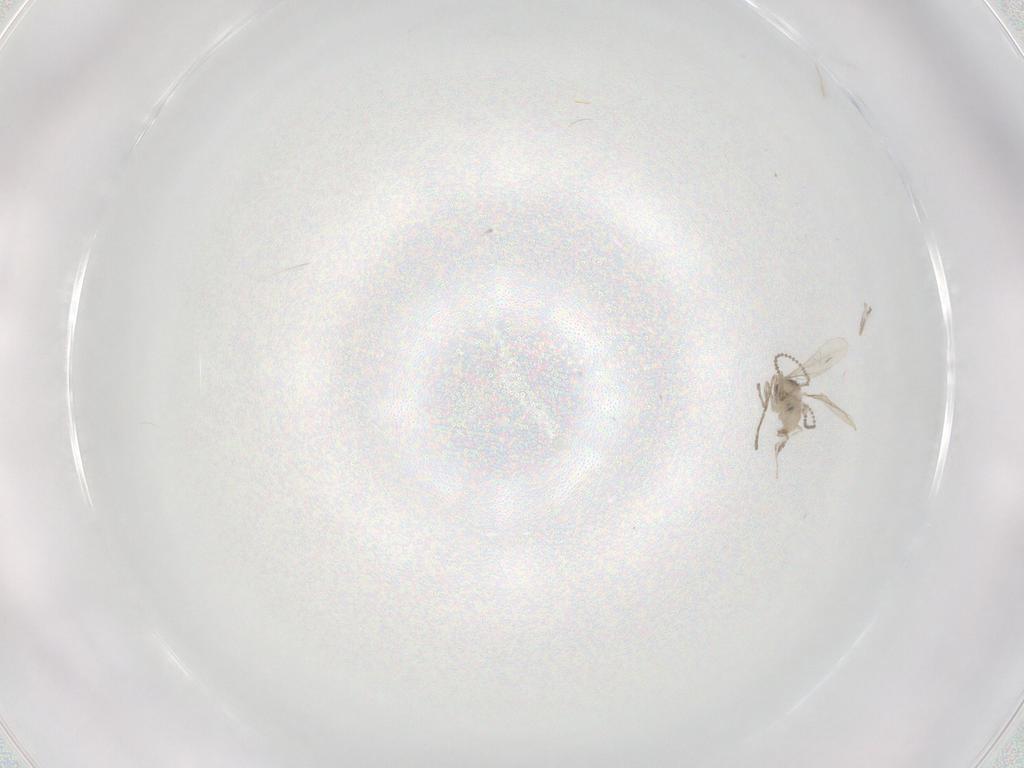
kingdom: Animalia
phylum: Arthropoda
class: Insecta
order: Diptera
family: Cecidomyiidae
